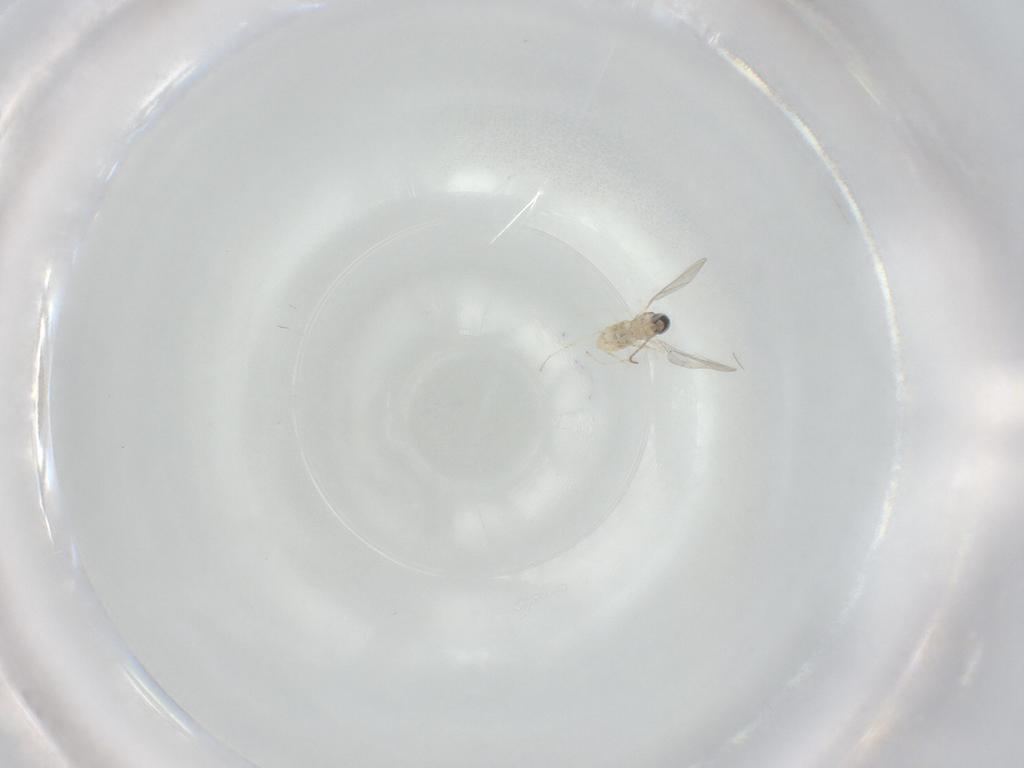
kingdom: Animalia
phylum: Arthropoda
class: Insecta
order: Diptera
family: Cecidomyiidae
